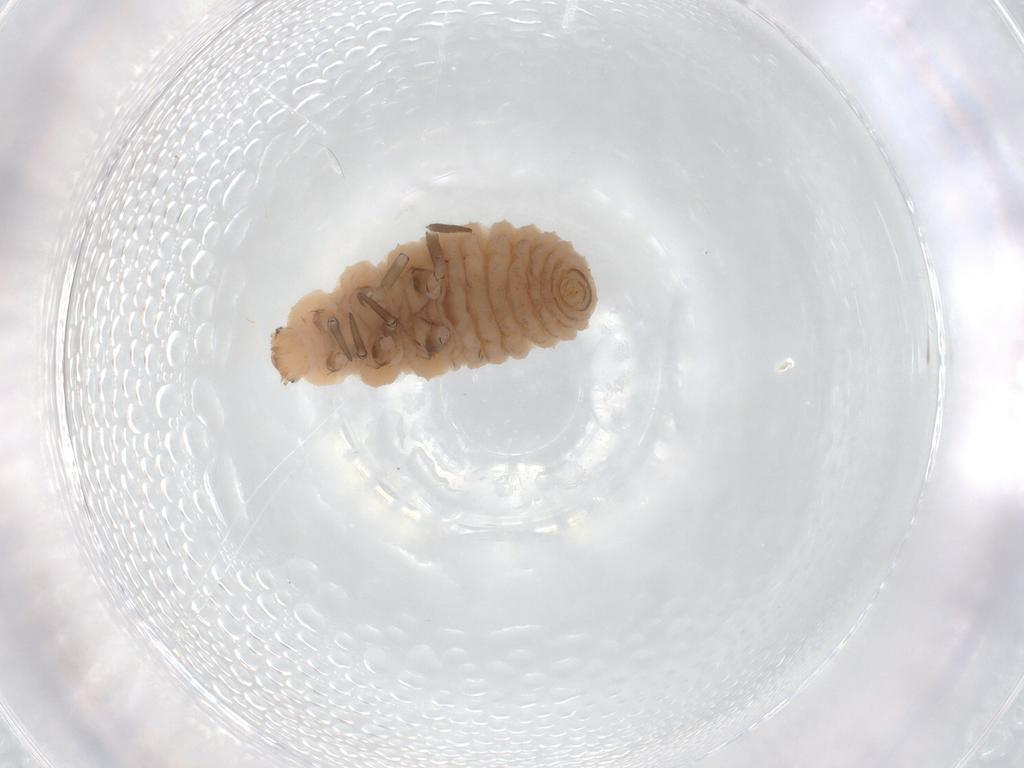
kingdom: Animalia
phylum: Arthropoda
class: Insecta
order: Coleoptera
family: Coccinellidae
